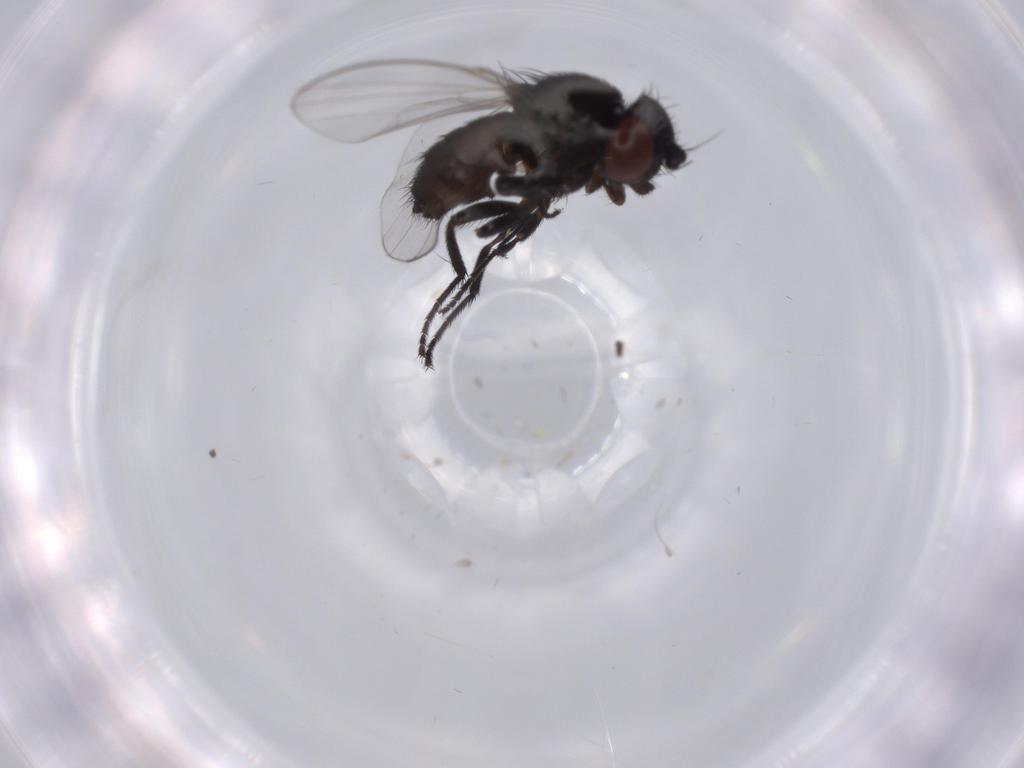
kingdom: Animalia
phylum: Arthropoda
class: Insecta
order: Diptera
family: Milichiidae
